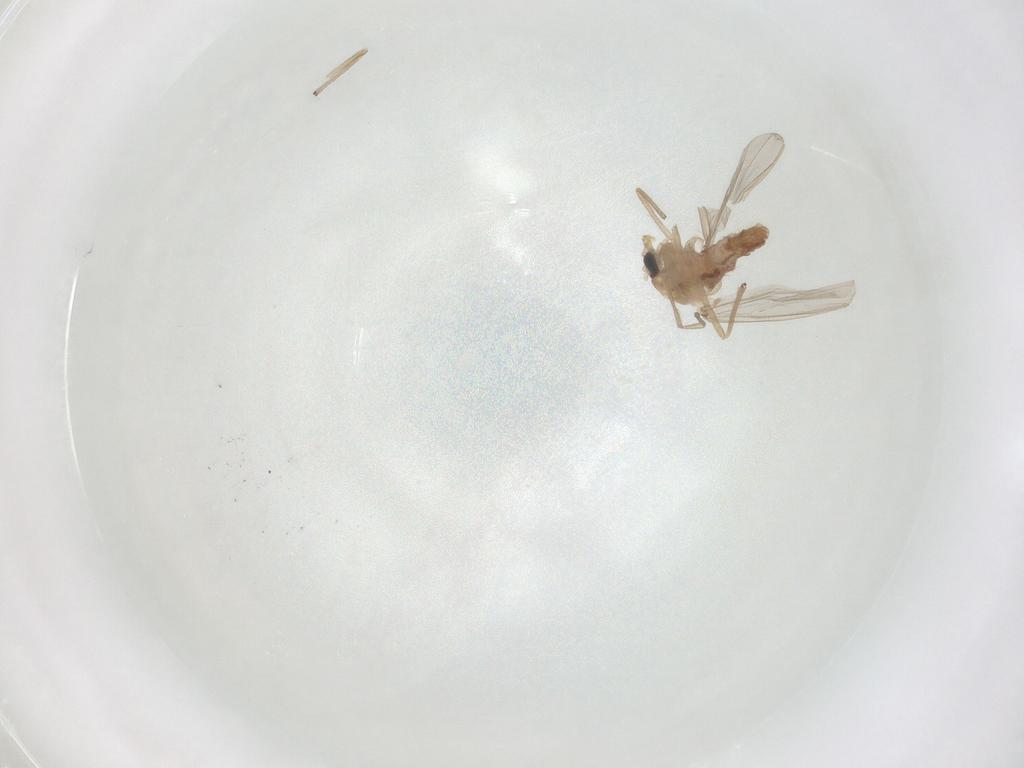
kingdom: Animalia
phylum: Arthropoda
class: Insecta
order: Diptera
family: Chironomidae
